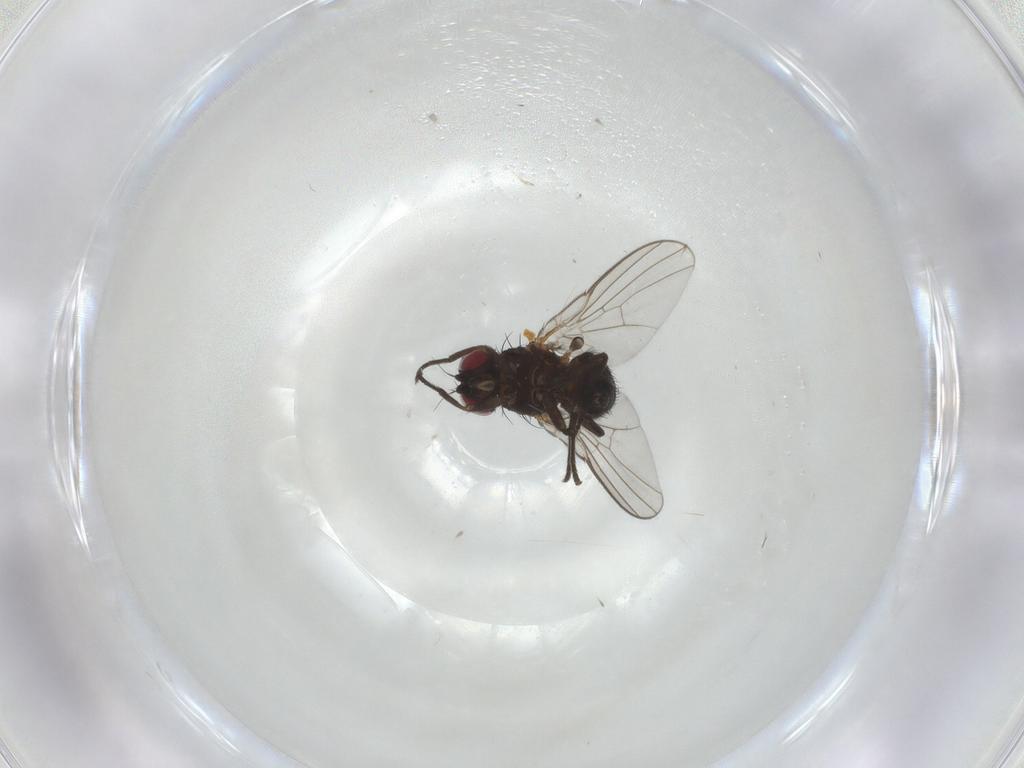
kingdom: Animalia
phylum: Arthropoda
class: Insecta
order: Diptera
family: Agromyzidae
